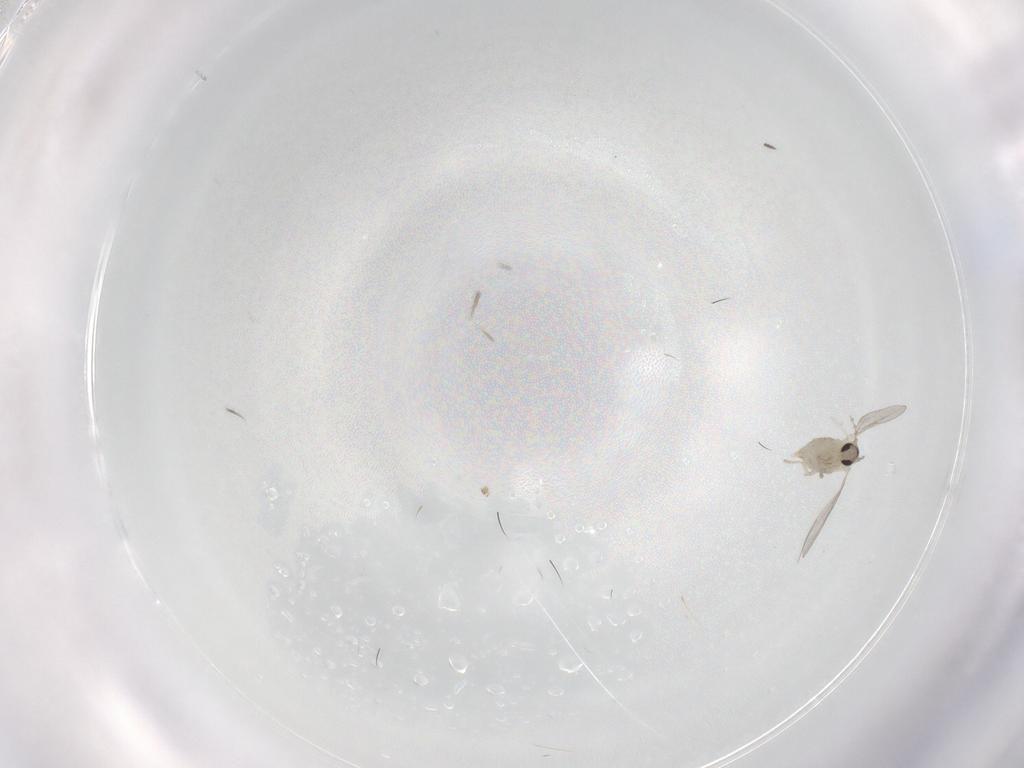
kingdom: Animalia
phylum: Arthropoda
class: Insecta
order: Diptera
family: Cecidomyiidae
